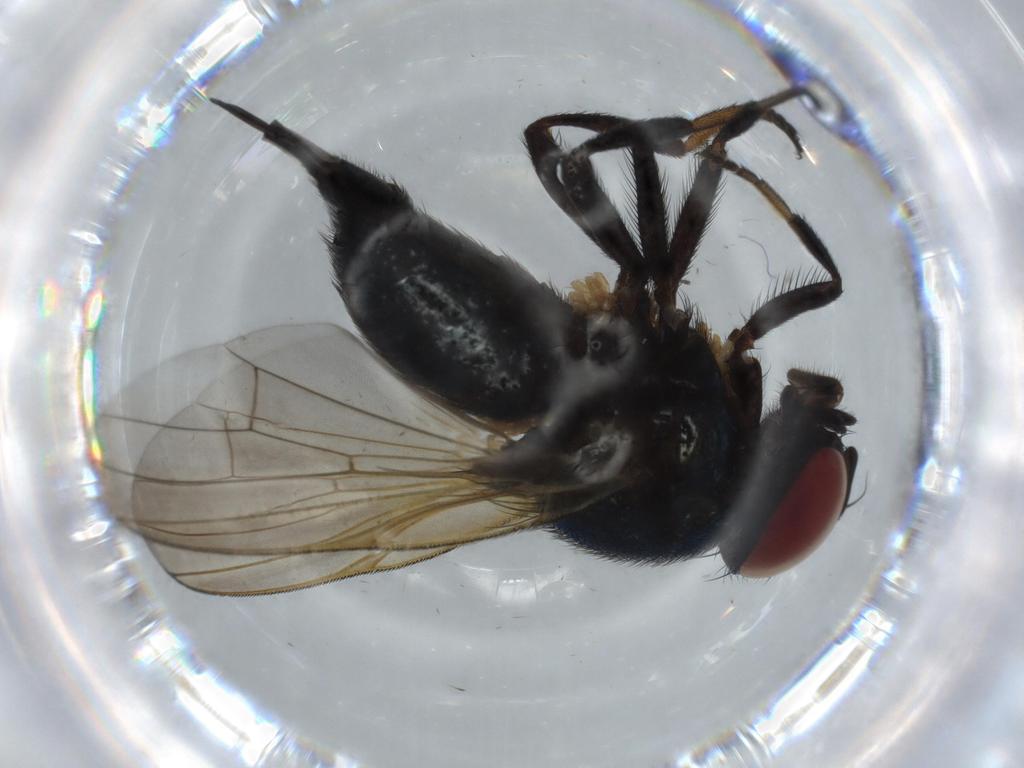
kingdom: Animalia
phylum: Arthropoda
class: Insecta
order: Diptera
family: Lonchaeidae
